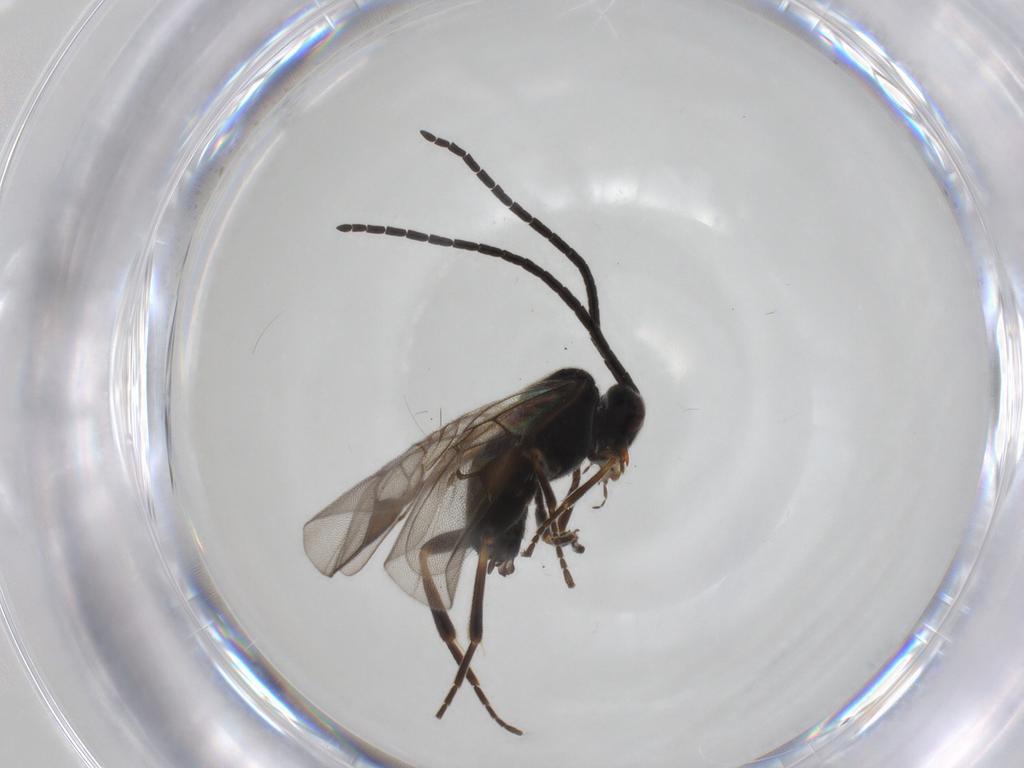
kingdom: Animalia
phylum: Arthropoda
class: Insecta
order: Hymenoptera
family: Braconidae
